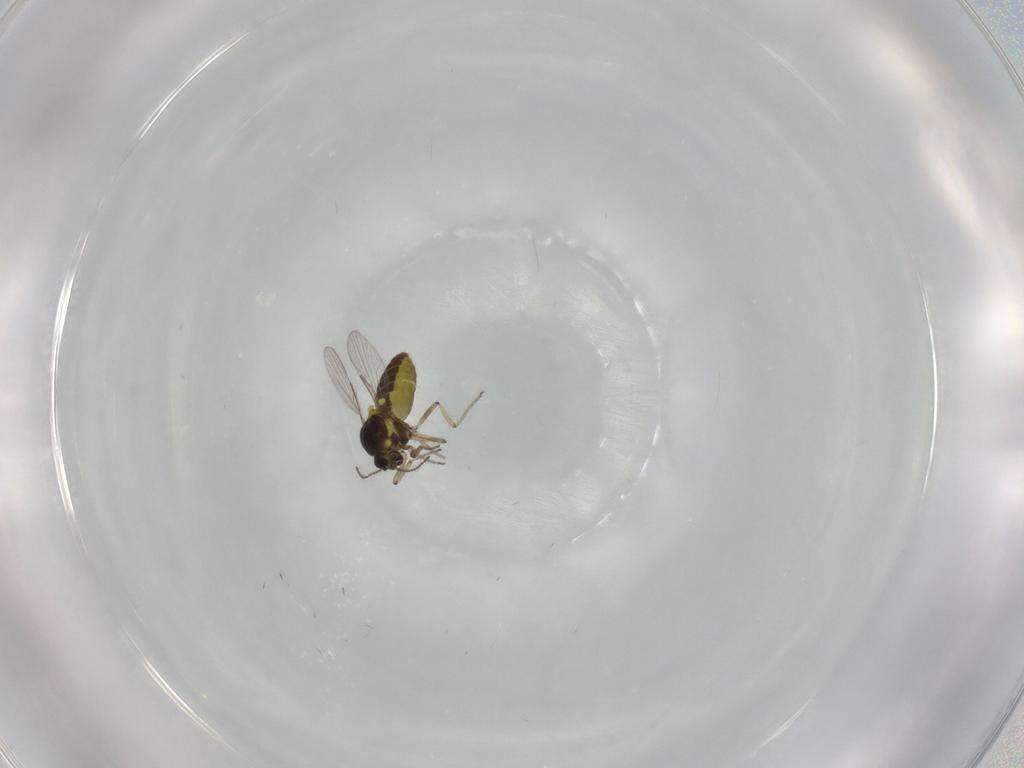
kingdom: Animalia
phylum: Arthropoda
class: Insecta
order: Diptera
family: Ceratopogonidae
